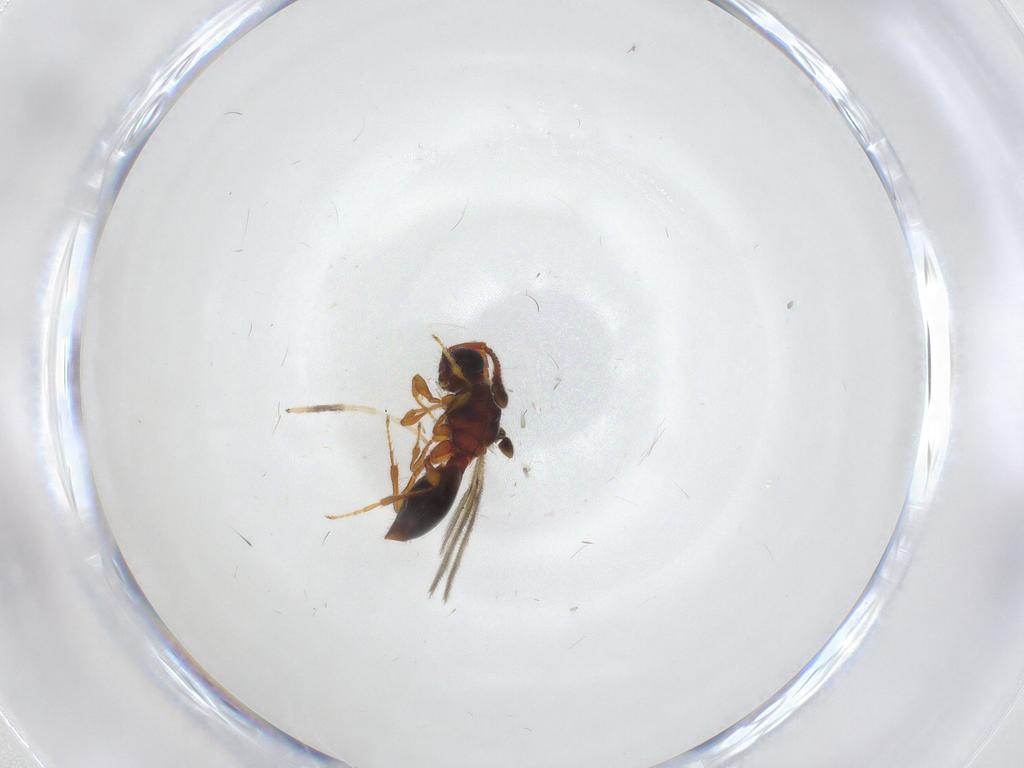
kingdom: Animalia
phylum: Arthropoda
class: Insecta
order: Hymenoptera
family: Diapriidae
